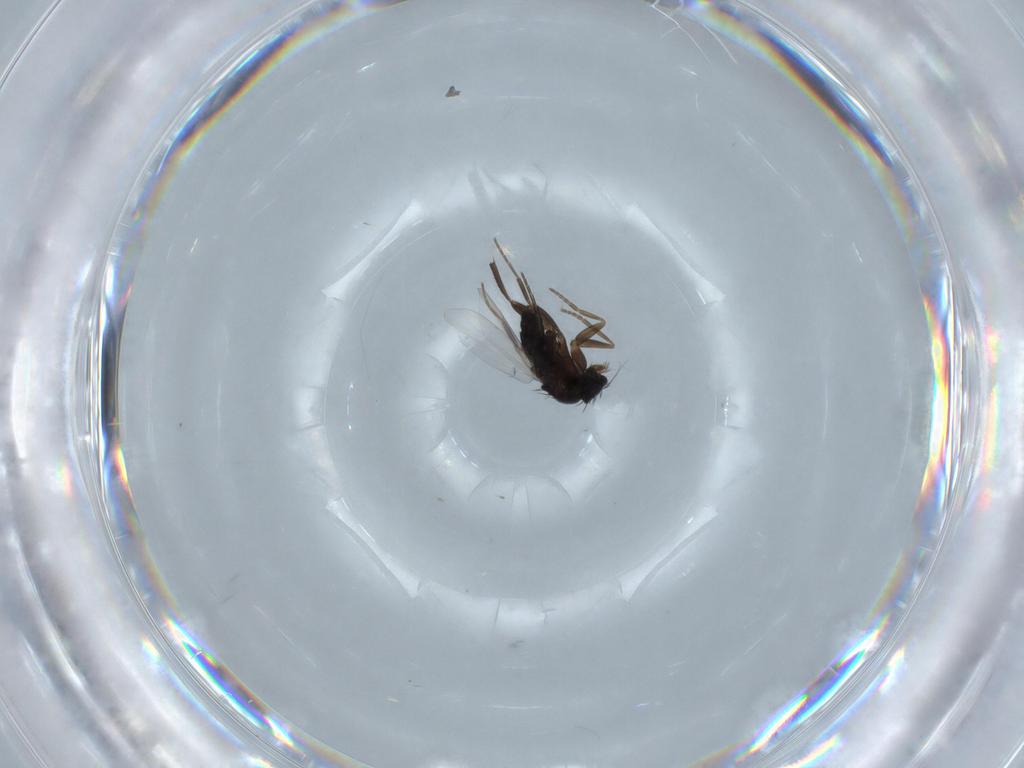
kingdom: Animalia
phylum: Arthropoda
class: Insecta
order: Diptera
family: Phoridae
